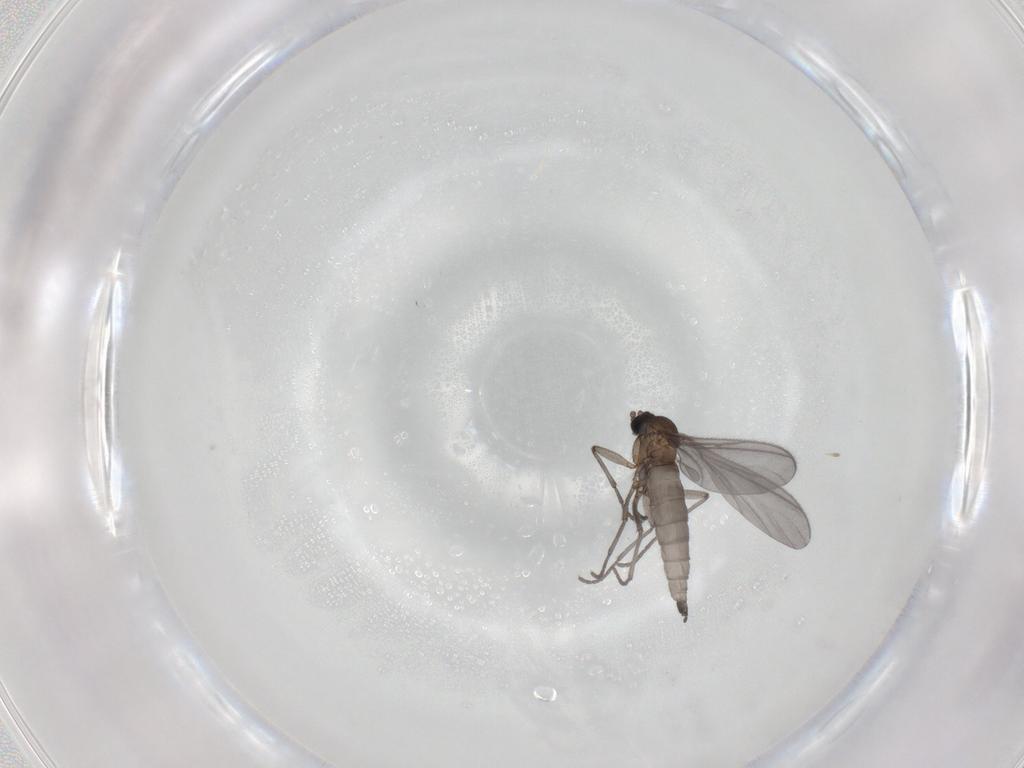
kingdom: Animalia
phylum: Arthropoda
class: Insecta
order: Diptera
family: Sciaridae
